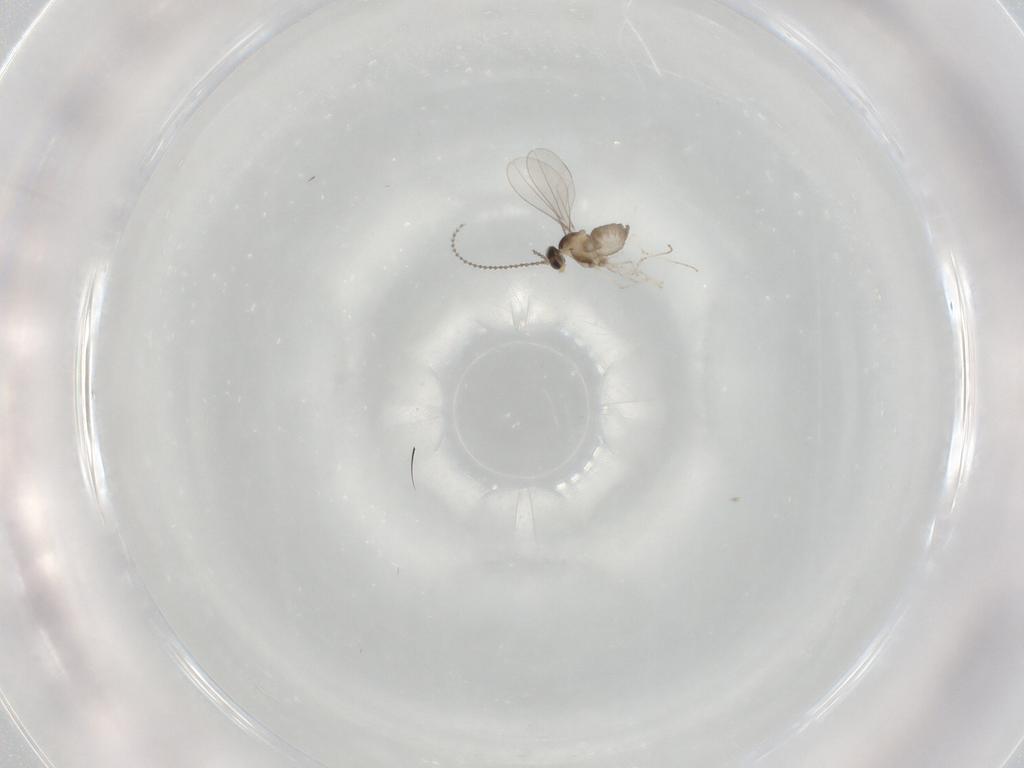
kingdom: Animalia
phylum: Arthropoda
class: Insecta
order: Diptera
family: Cecidomyiidae
